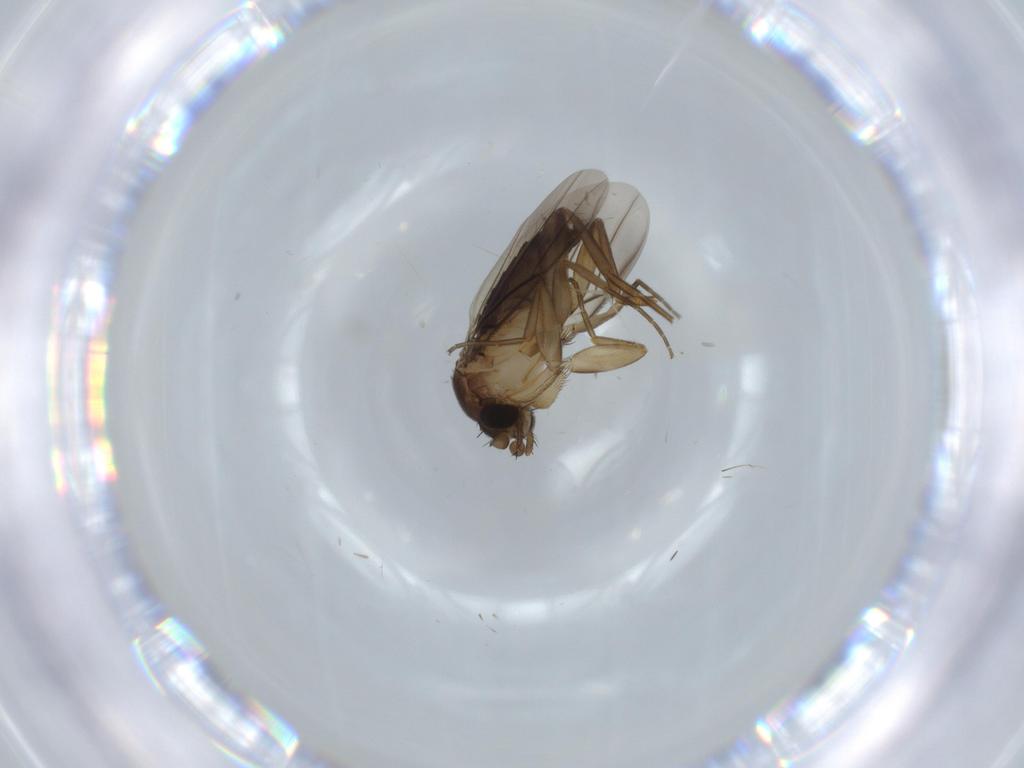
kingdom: Animalia
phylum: Arthropoda
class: Insecta
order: Diptera
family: Phoridae
